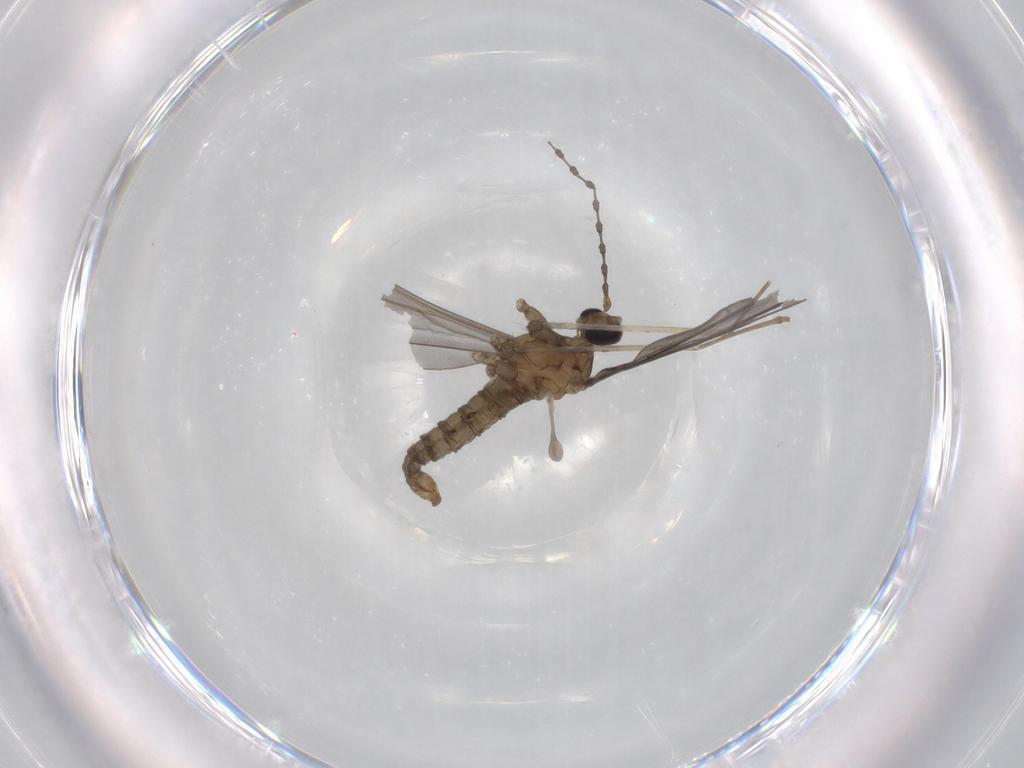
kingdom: Animalia
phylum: Arthropoda
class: Insecta
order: Diptera
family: Cecidomyiidae
